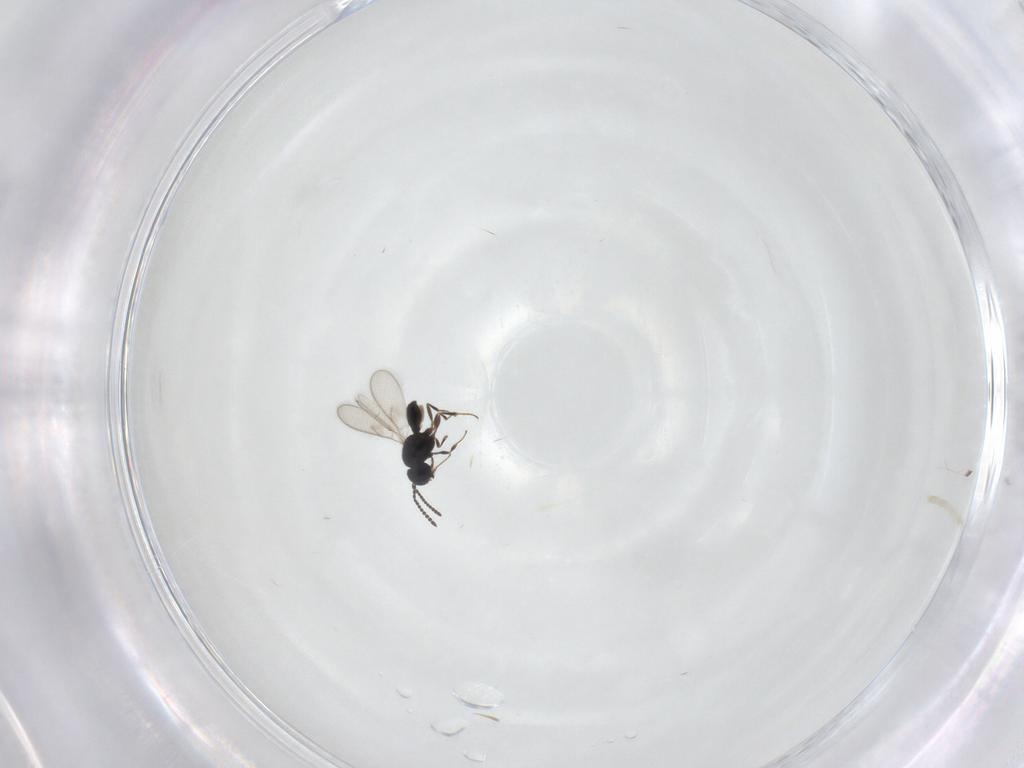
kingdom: Animalia
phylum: Arthropoda
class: Insecta
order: Hymenoptera
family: Scelionidae
